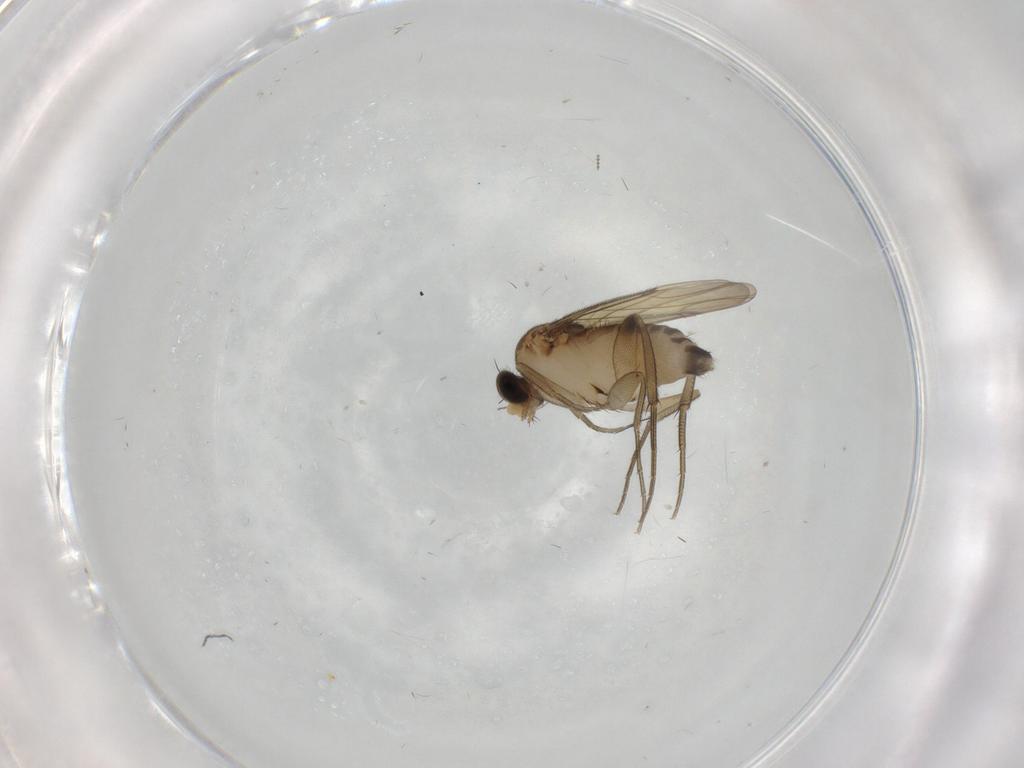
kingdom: Animalia
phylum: Arthropoda
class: Insecta
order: Diptera
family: Phoridae
